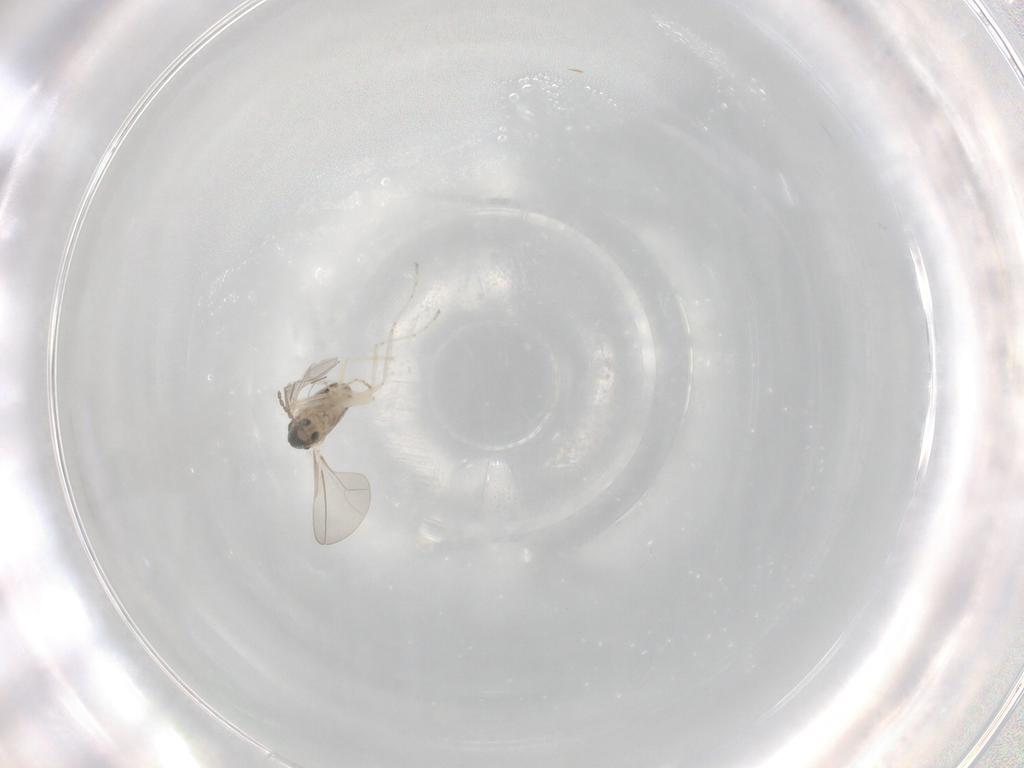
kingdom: Animalia
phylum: Arthropoda
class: Insecta
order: Diptera
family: Cecidomyiidae
